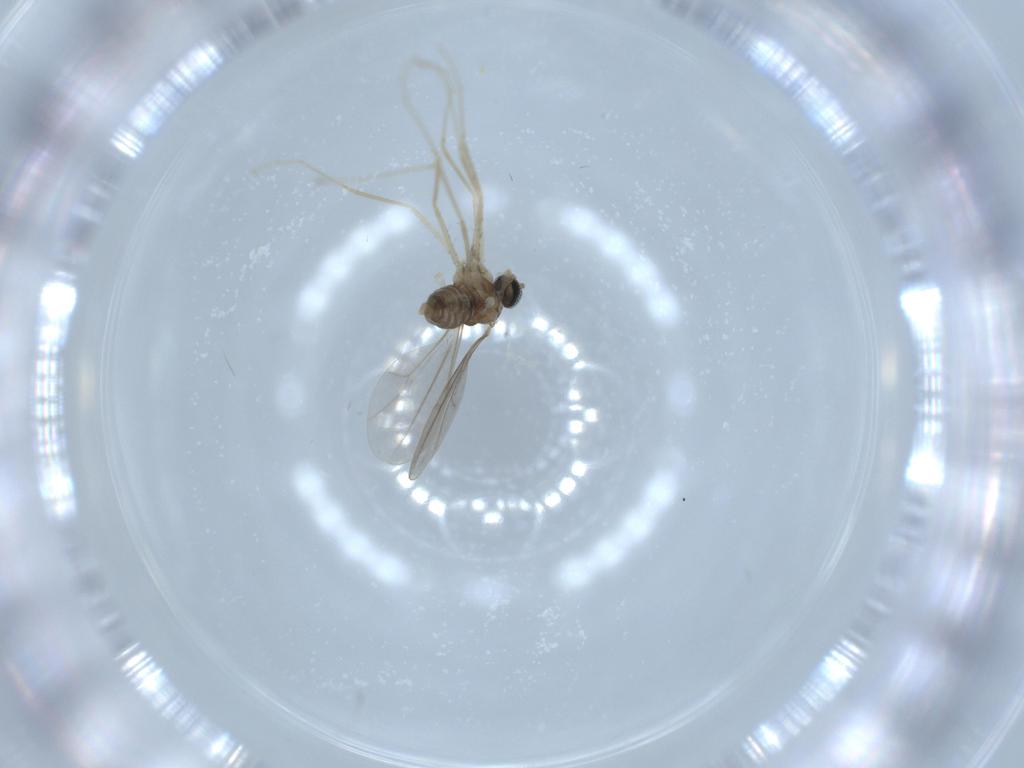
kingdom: Animalia
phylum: Arthropoda
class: Insecta
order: Diptera
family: Cecidomyiidae
